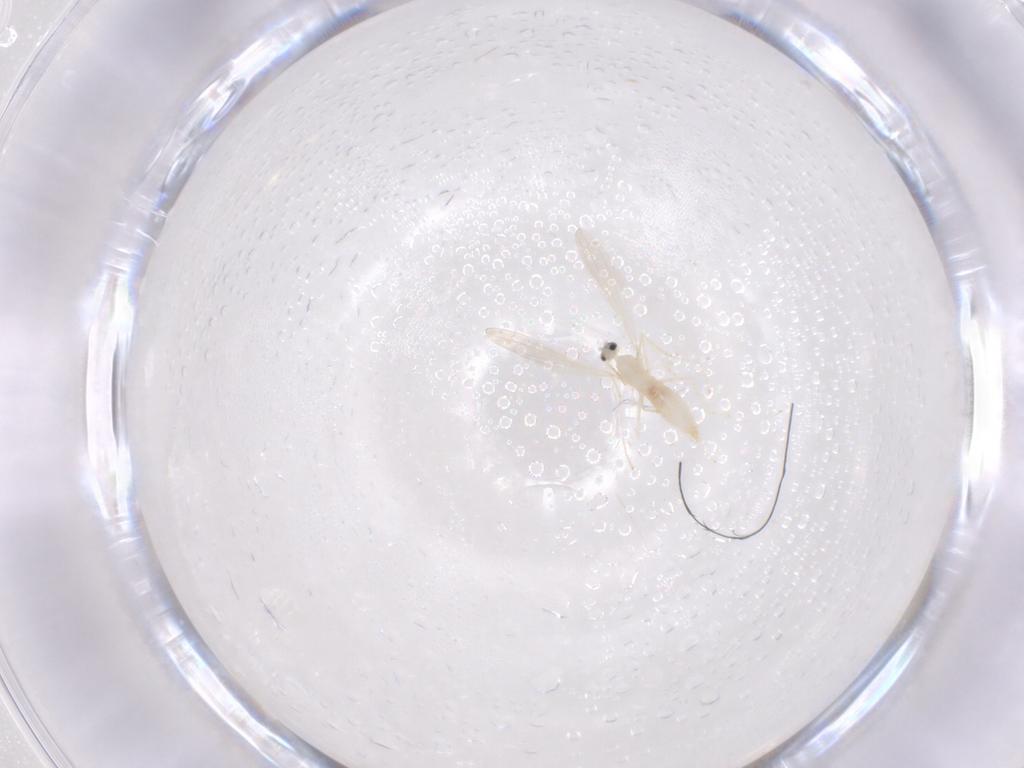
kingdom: Animalia
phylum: Arthropoda
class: Insecta
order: Diptera
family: Cecidomyiidae
